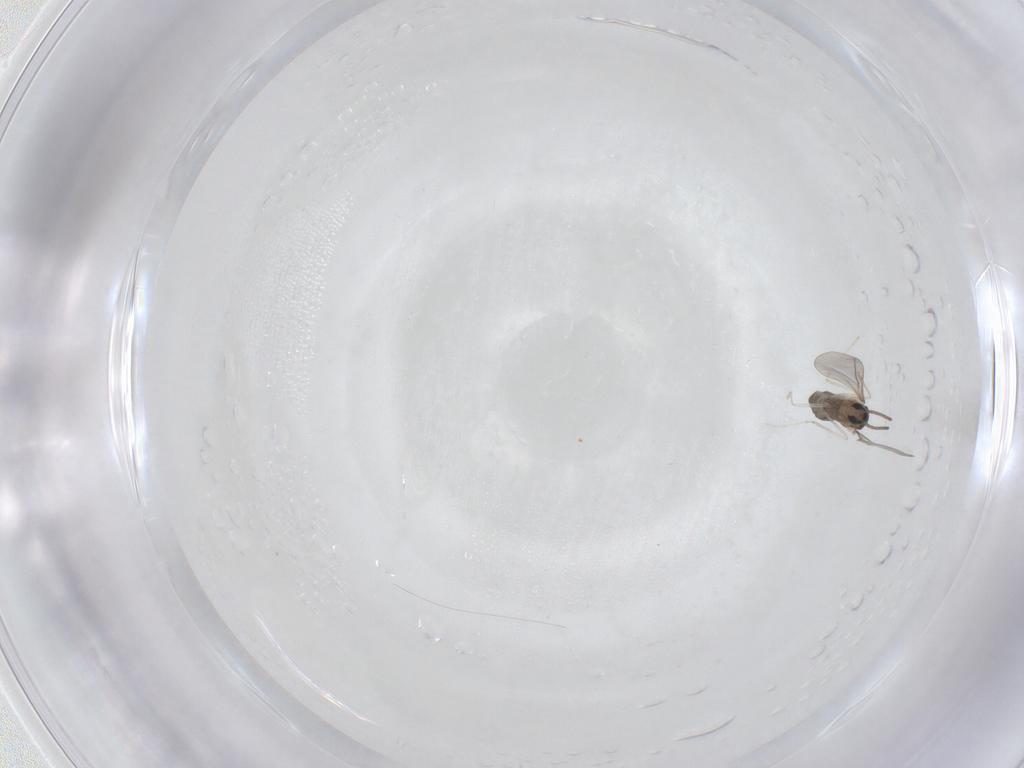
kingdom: Animalia
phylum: Arthropoda
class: Insecta
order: Diptera
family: Cecidomyiidae
